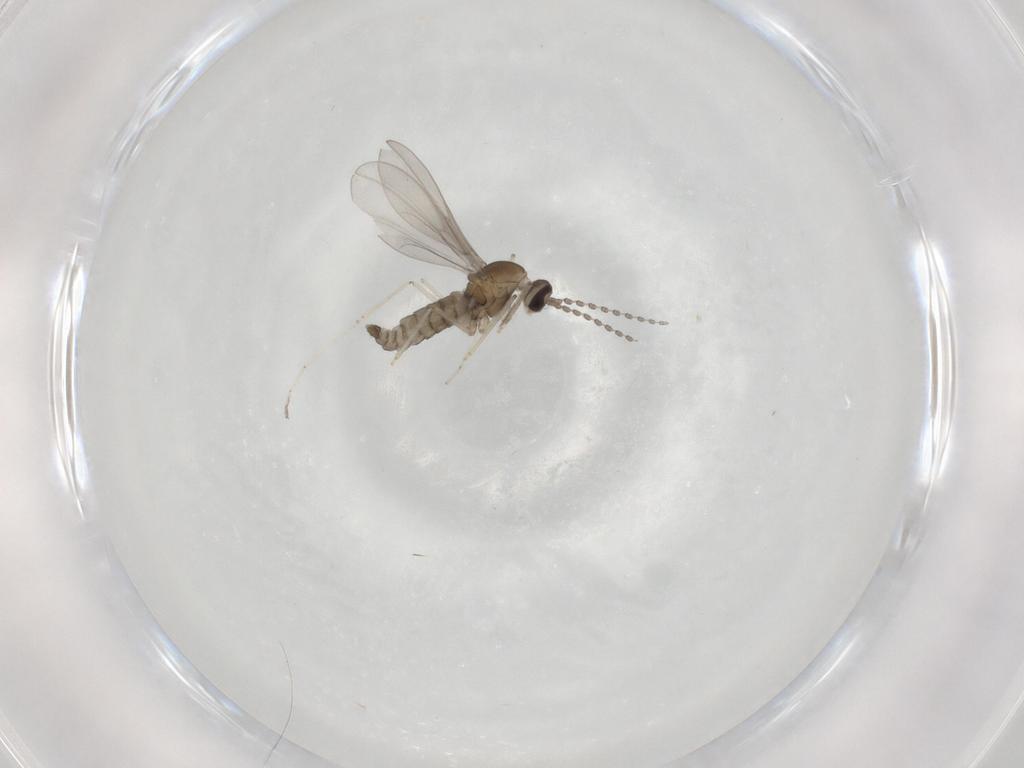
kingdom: Animalia
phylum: Arthropoda
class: Insecta
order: Diptera
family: Cecidomyiidae
